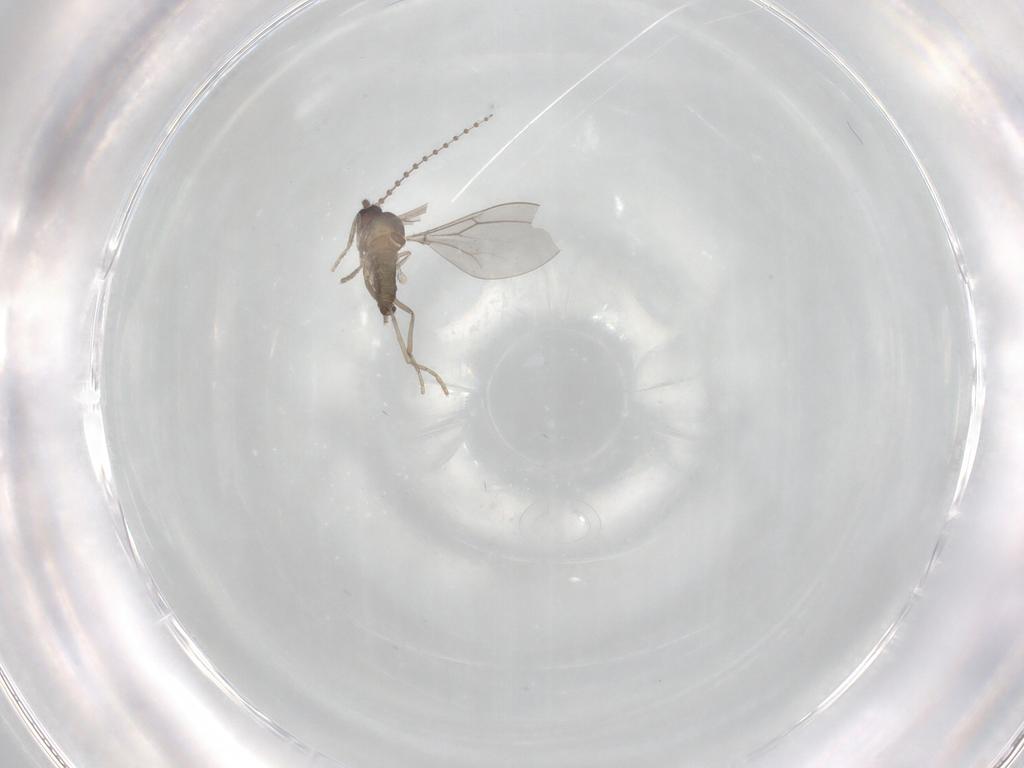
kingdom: Animalia
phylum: Arthropoda
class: Insecta
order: Diptera
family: Cecidomyiidae
